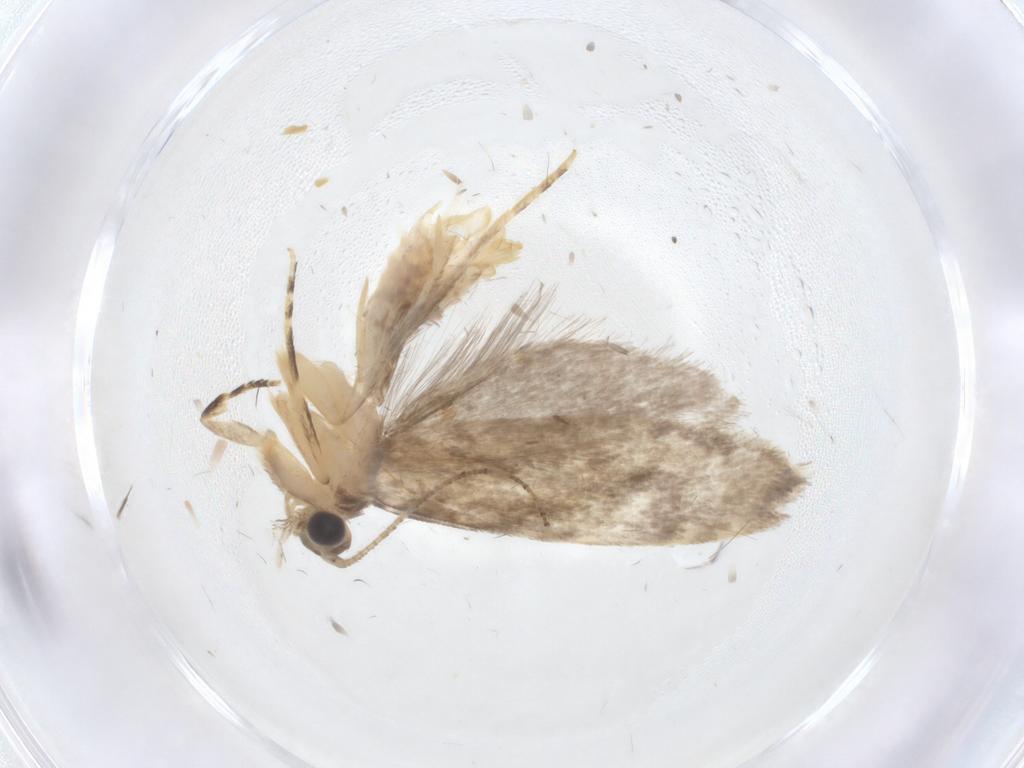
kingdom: Animalia
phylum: Arthropoda
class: Insecta
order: Lepidoptera
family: Tineidae
